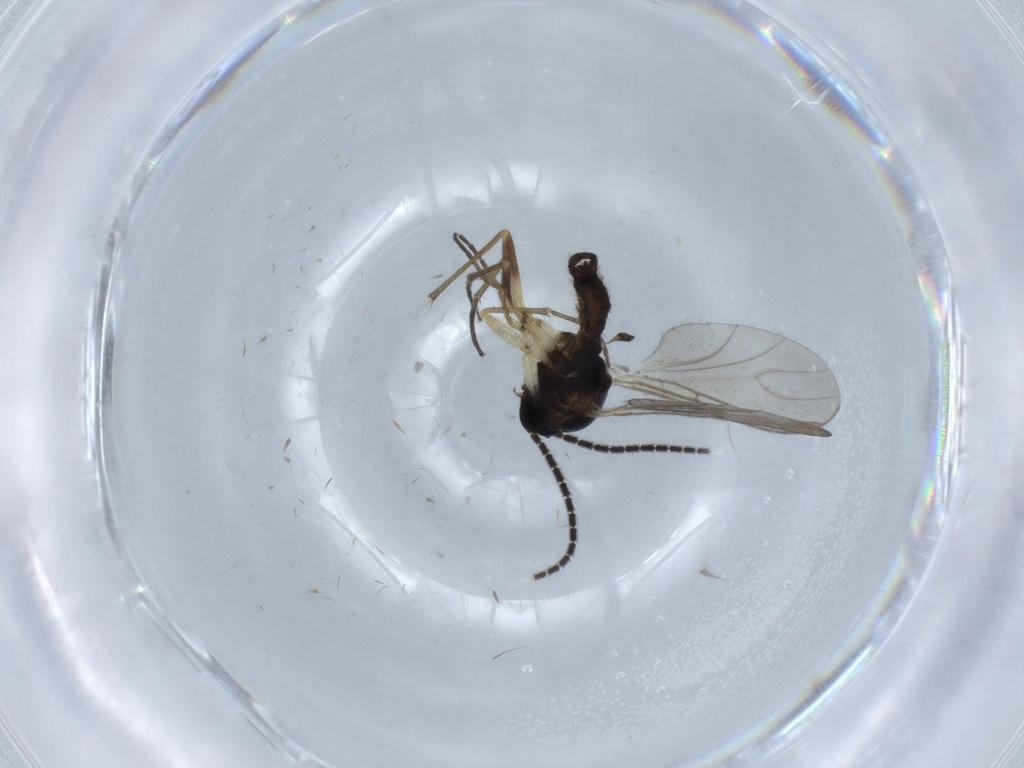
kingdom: Animalia
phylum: Arthropoda
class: Insecta
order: Diptera
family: Sciaridae
